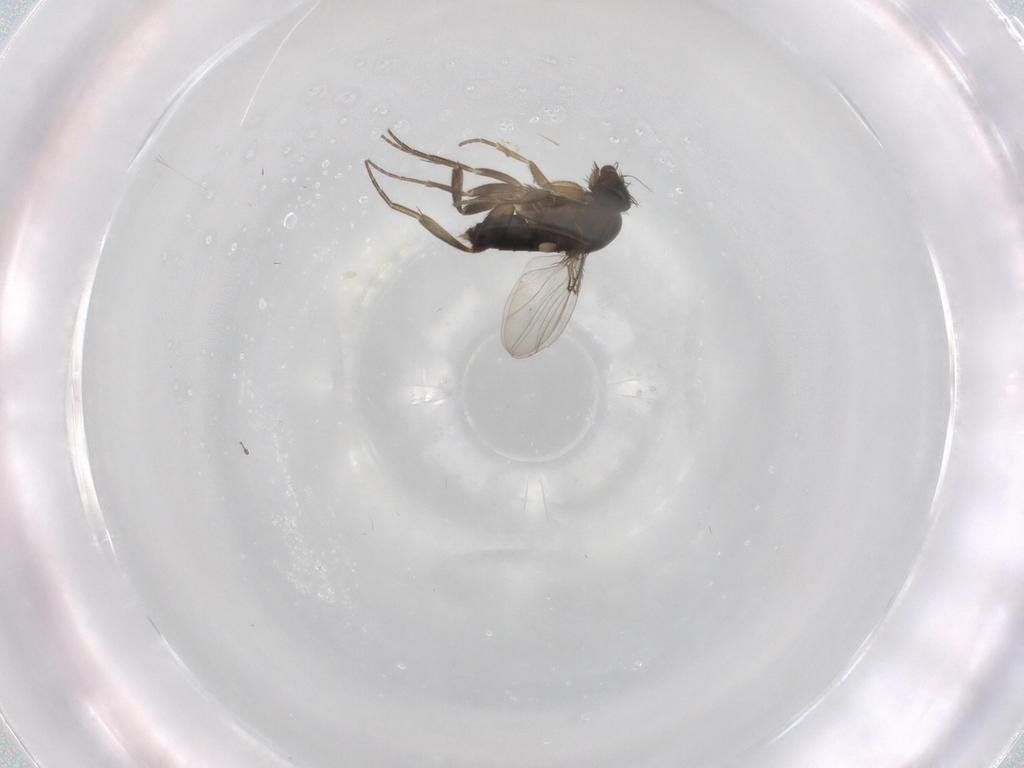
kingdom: Animalia
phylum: Arthropoda
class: Insecta
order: Diptera
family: Phoridae
